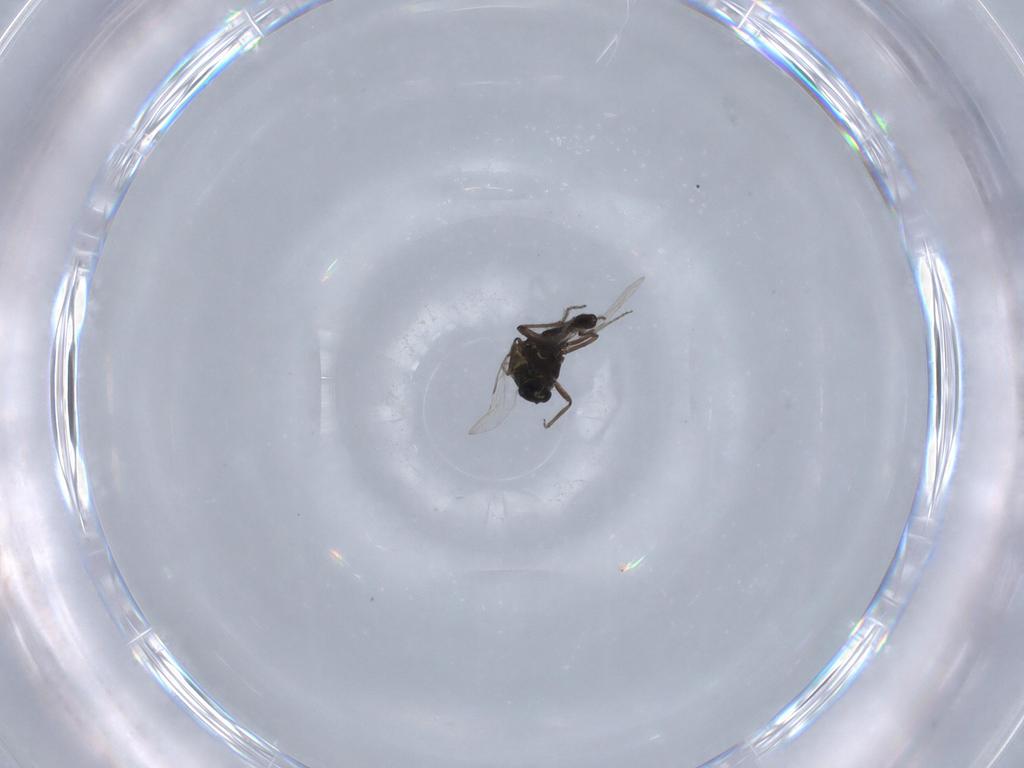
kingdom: Animalia
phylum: Arthropoda
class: Insecta
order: Diptera
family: Ceratopogonidae
